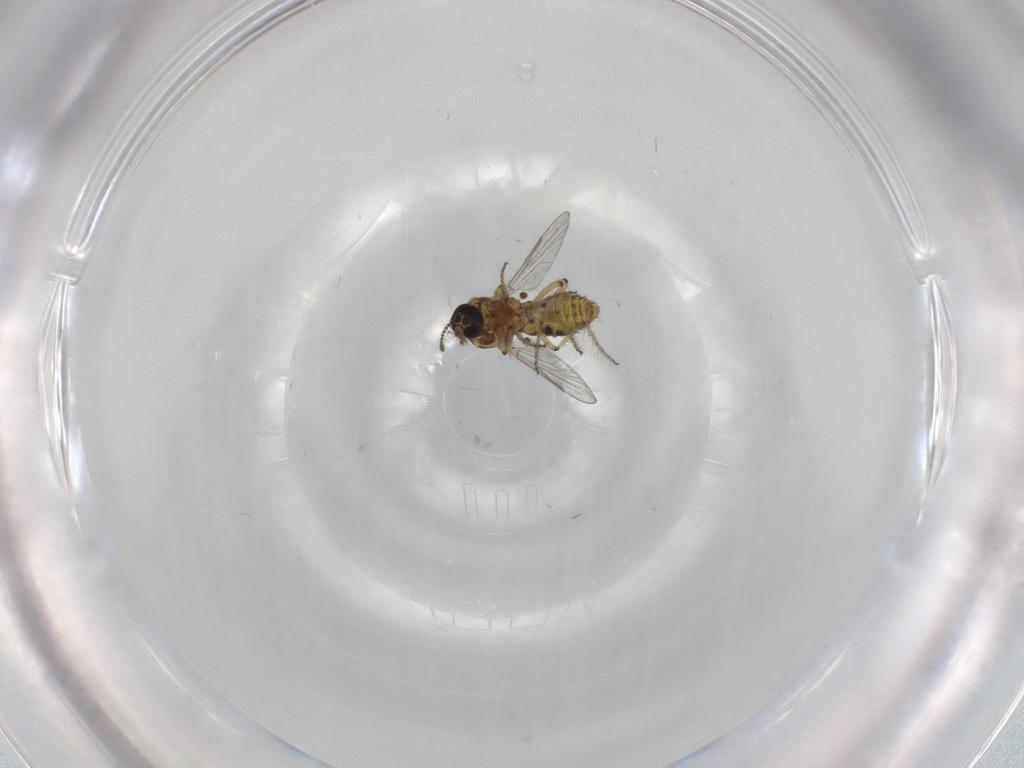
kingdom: Animalia
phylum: Arthropoda
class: Insecta
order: Diptera
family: Ceratopogonidae
